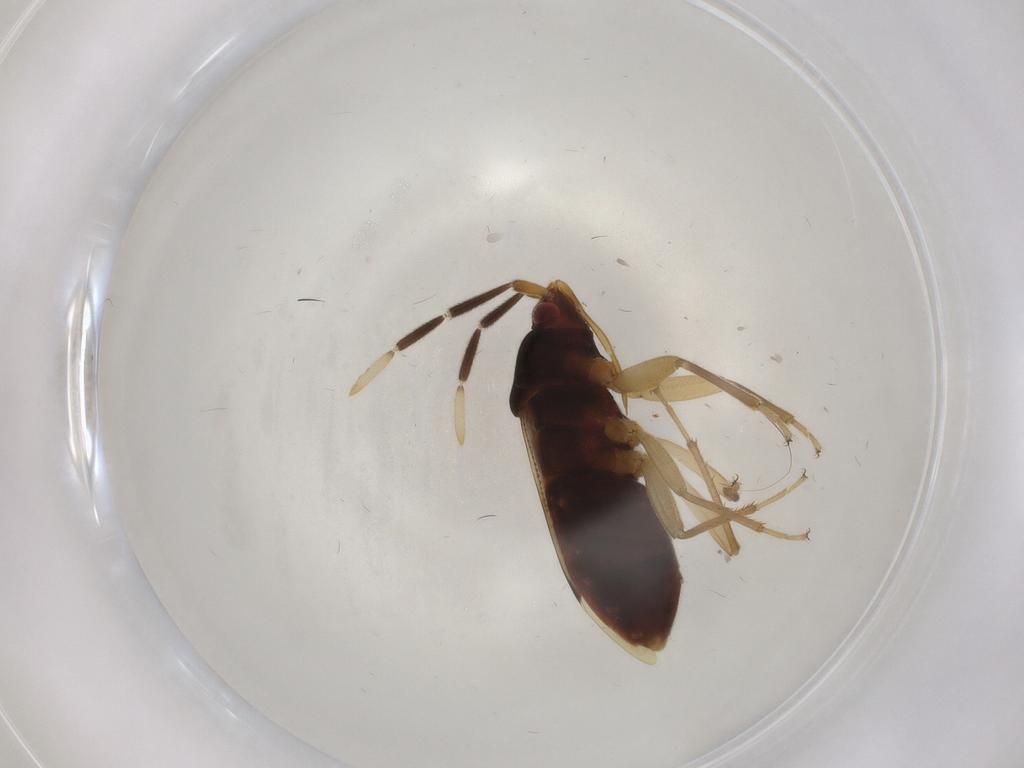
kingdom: Animalia
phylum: Arthropoda
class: Insecta
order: Hemiptera
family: Rhyparochromidae
